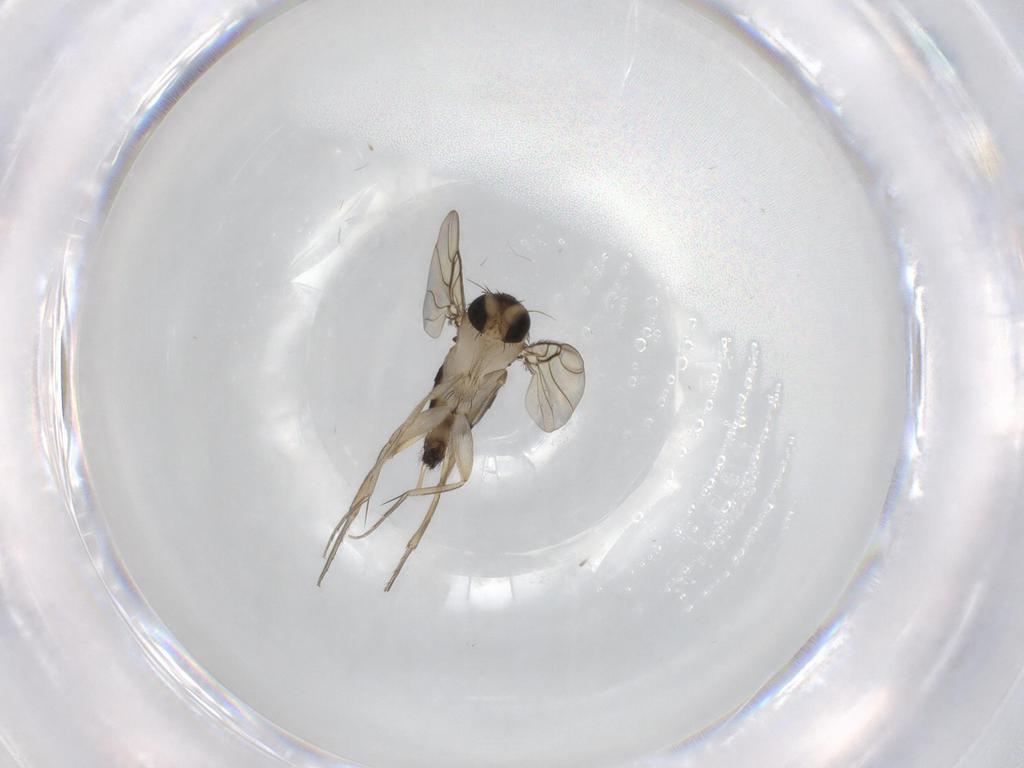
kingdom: Animalia
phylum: Arthropoda
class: Insecta
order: Diptera
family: Phoridae
